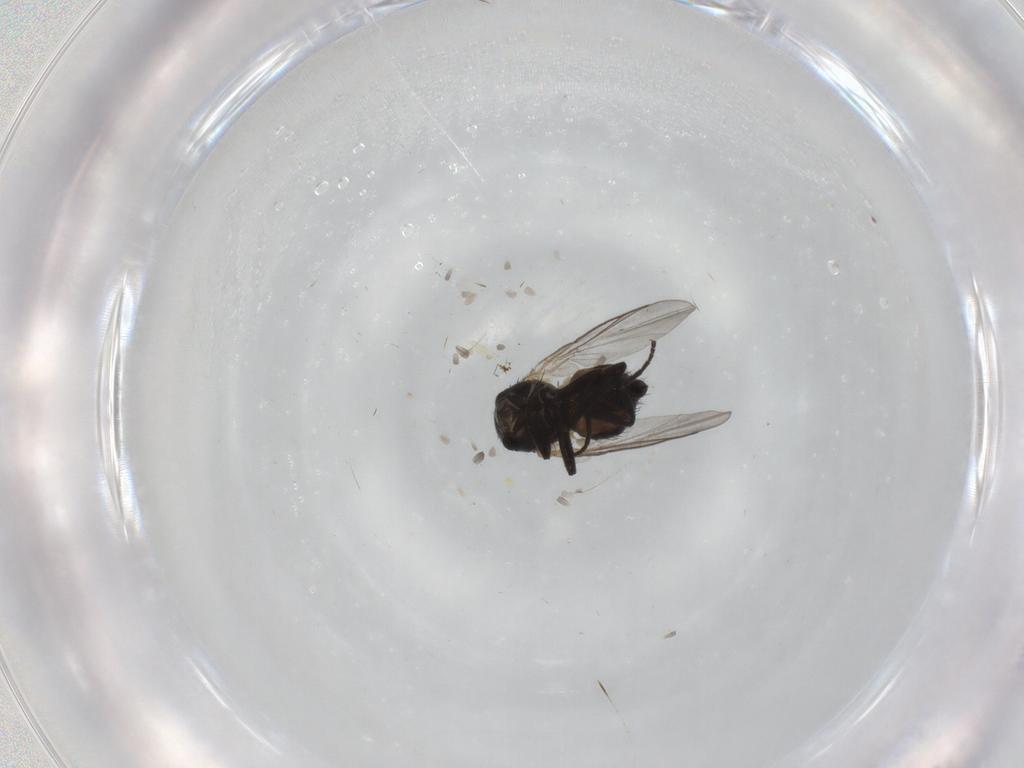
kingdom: Animalia
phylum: Arthropoda
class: Insecta
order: Diptera
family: Agromyzidae
